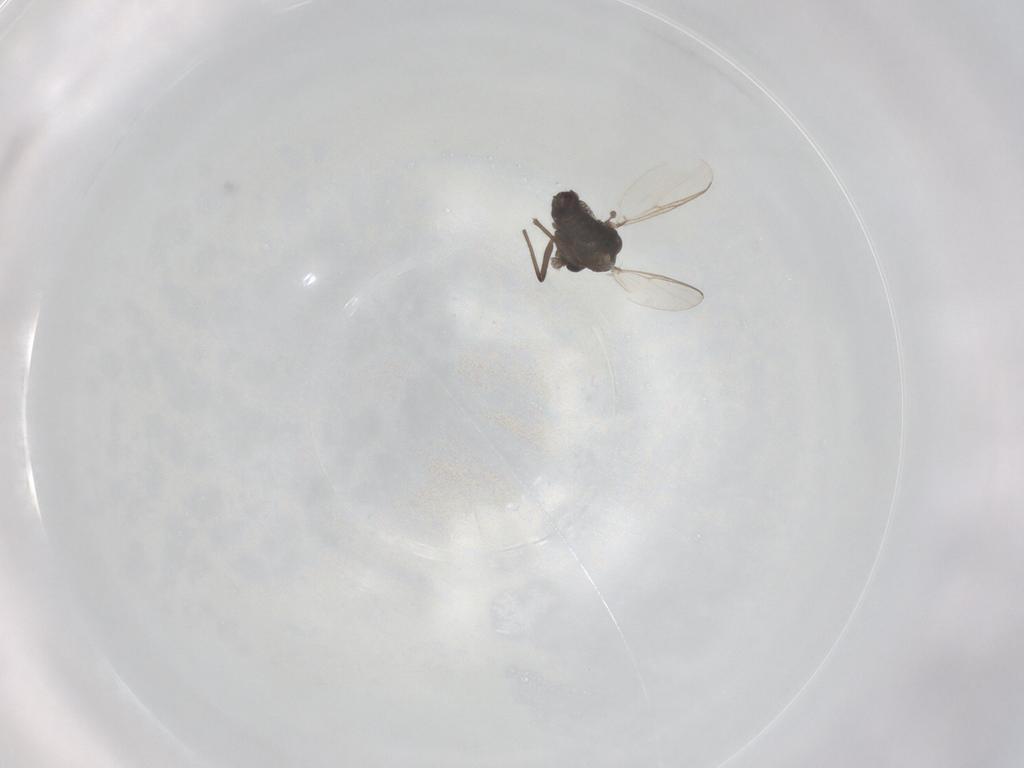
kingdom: Animalia
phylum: Arthropoda
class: Insecta
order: Diptera
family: Chironomidae
